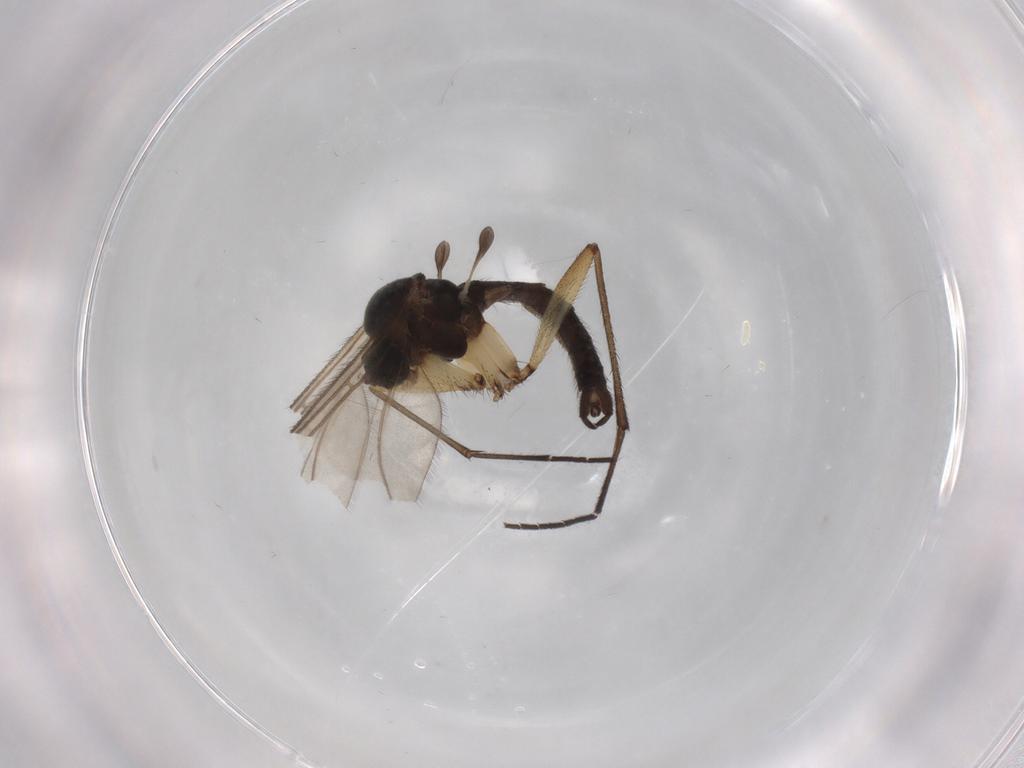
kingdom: Animalia
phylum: Arthropoda
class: Insecta
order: Diptera
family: Sciaridae
